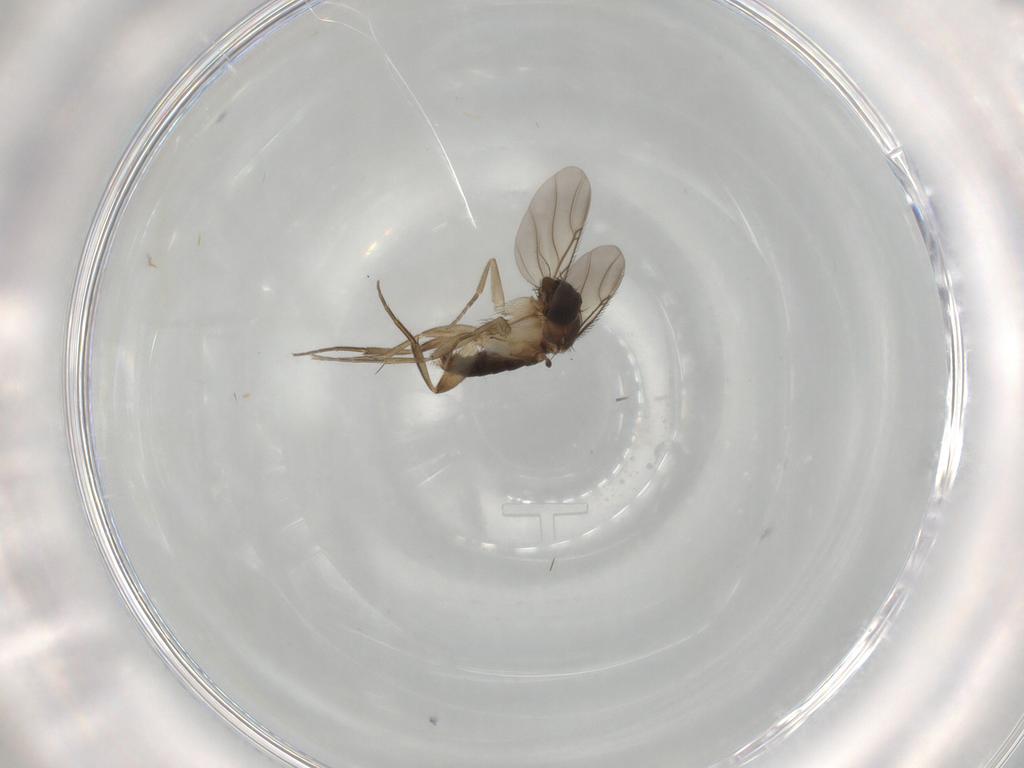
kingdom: Animalia
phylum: Arthropoda
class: Insecta
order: Diptera
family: Phoridae
